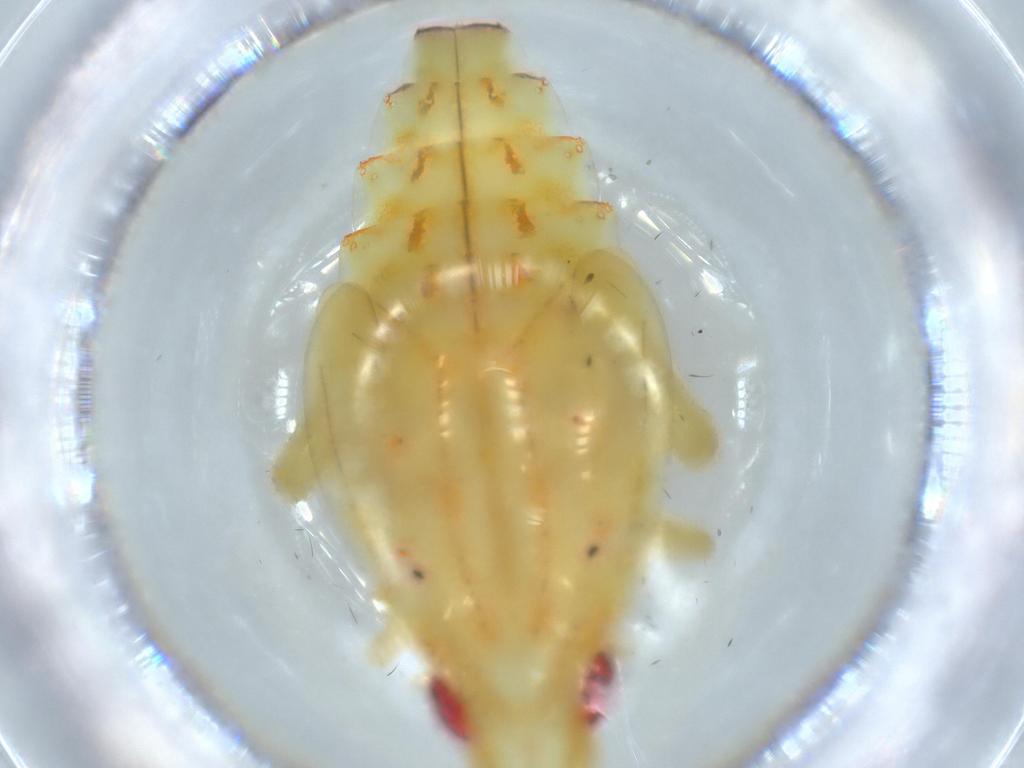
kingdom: Animalia
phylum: Arthropoda
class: Insecta
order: Hemiptera
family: Tropiduchidae
